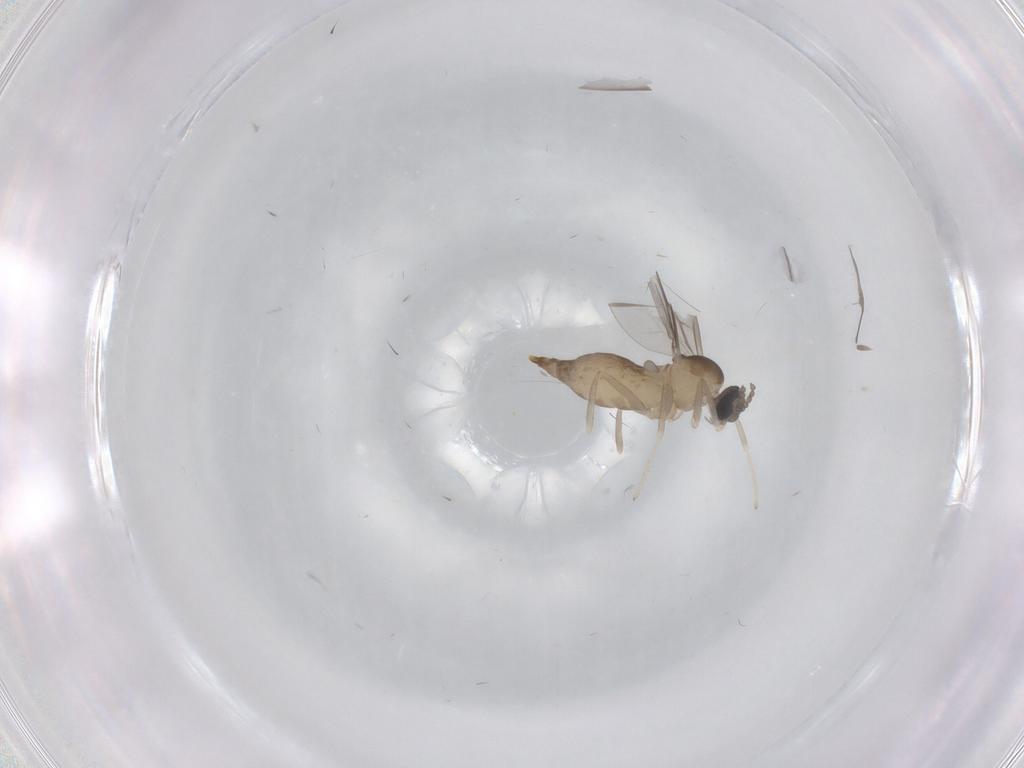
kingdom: Animalia
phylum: Arthropoda
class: Insecta
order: Diptera
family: Cecidomyiidae
